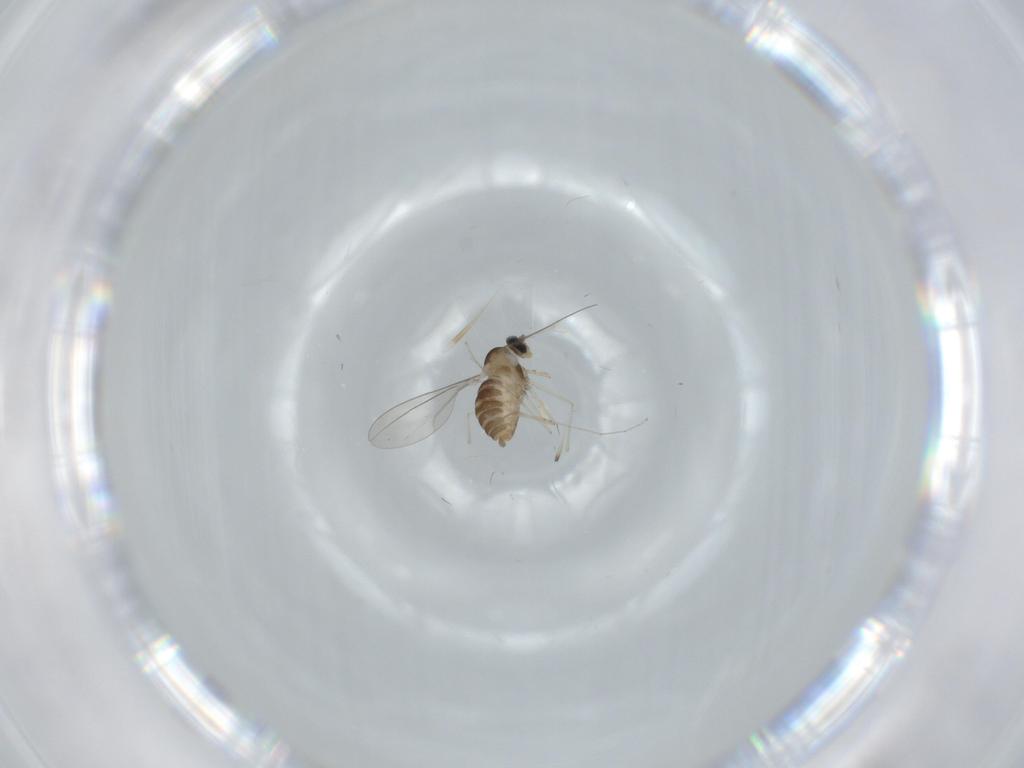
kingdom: Animalia
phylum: Arthropoda
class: Insecta
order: Diptera
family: Cecidomyiidae
